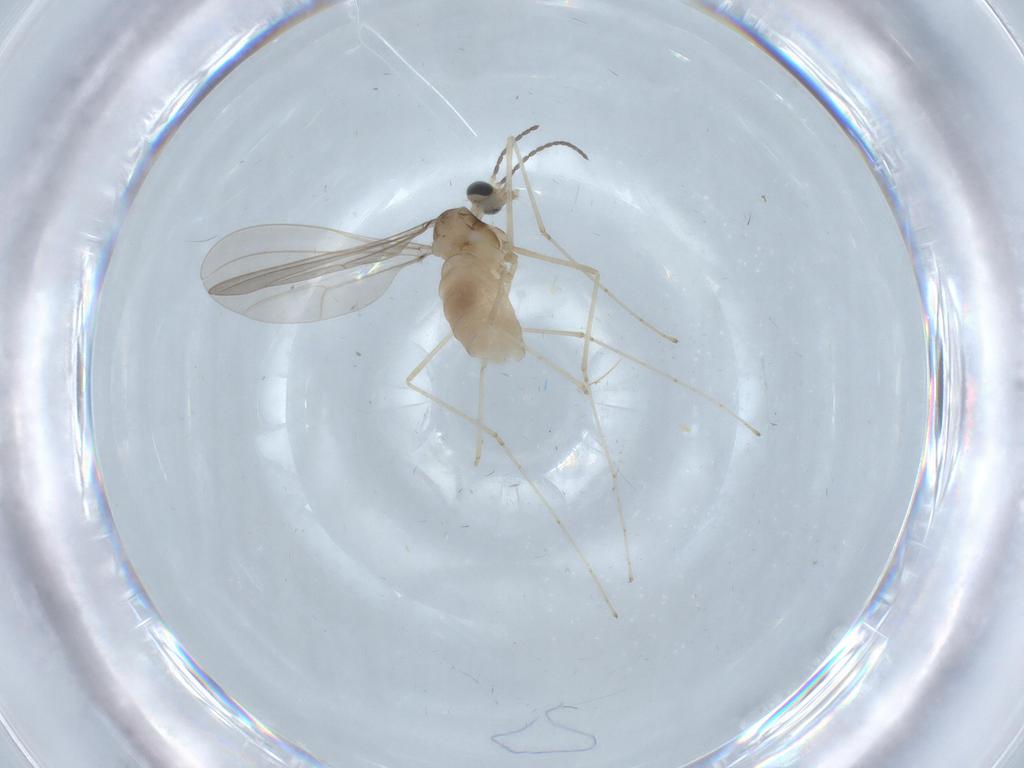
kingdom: Animalia
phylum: Arthropoda
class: Insecta
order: Diptera
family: Cecidomyiidae
